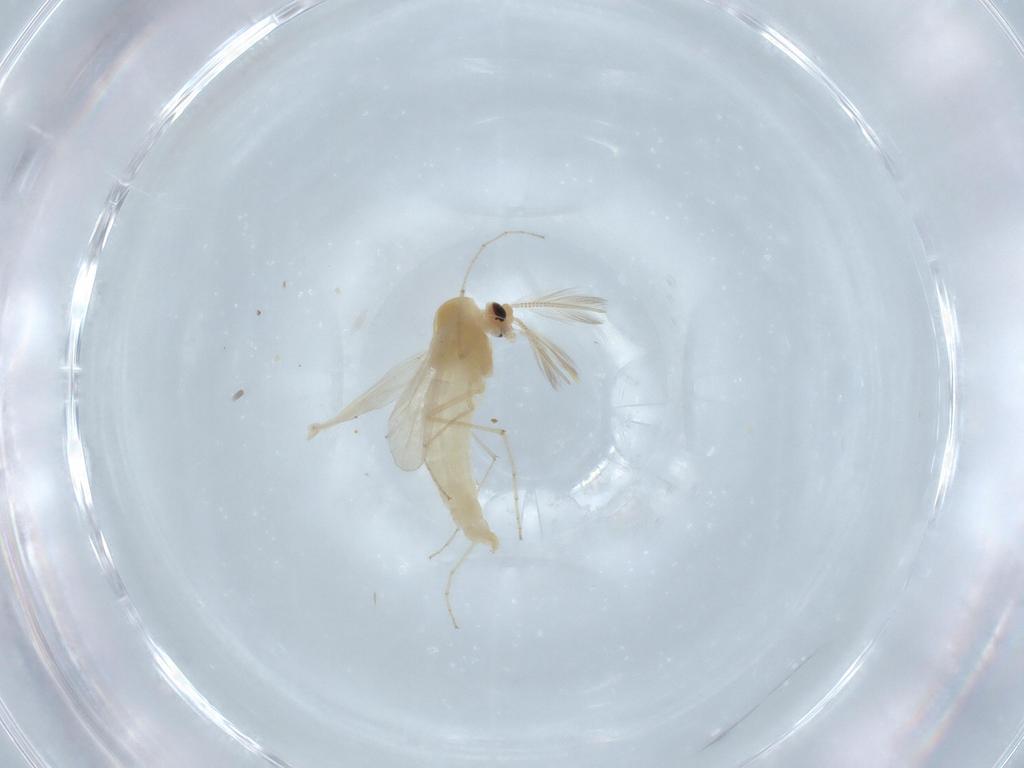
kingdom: Animalia
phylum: Arthropoda
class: Insecta
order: Diptera
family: Chironomidae
